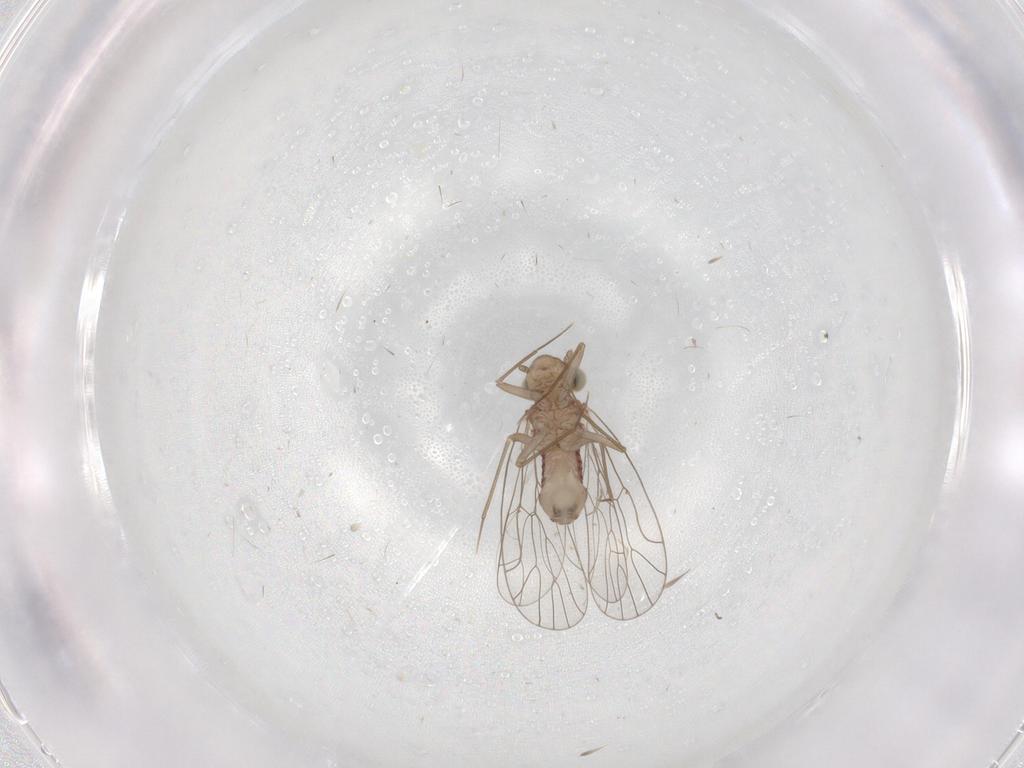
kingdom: Animalia
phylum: Arthropoda
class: Insecta
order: Psocodea
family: Amphientomidae
